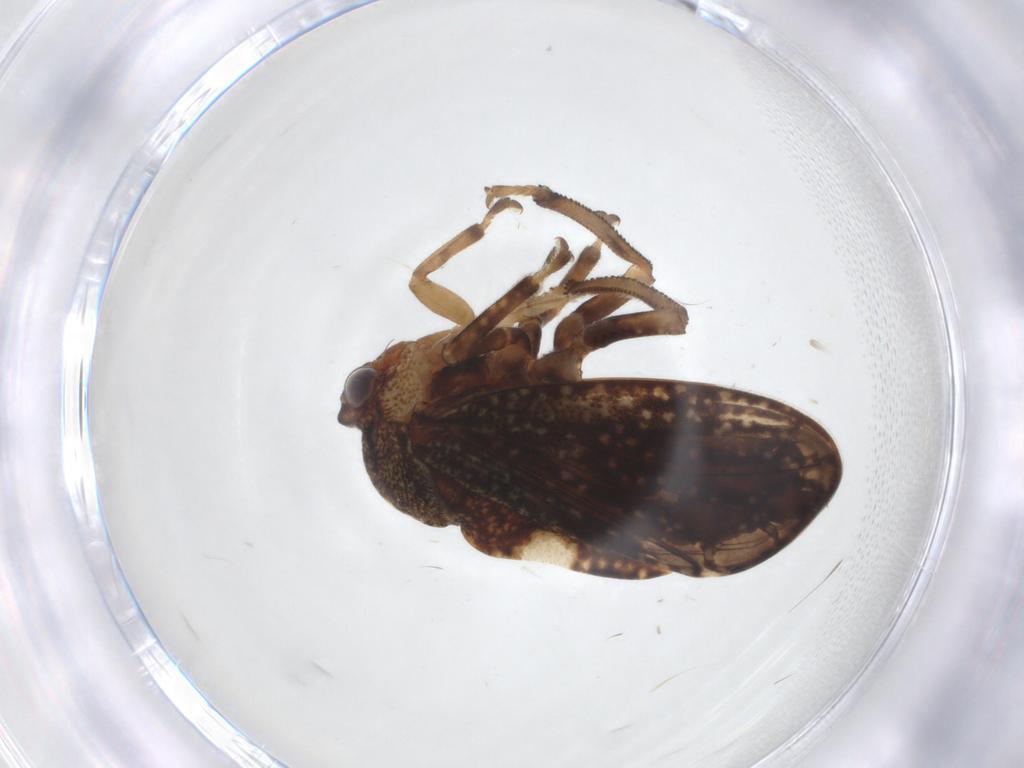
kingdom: Animalia
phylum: Arthropoda
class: Insecta
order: Hemiptera
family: Aetalionidae
